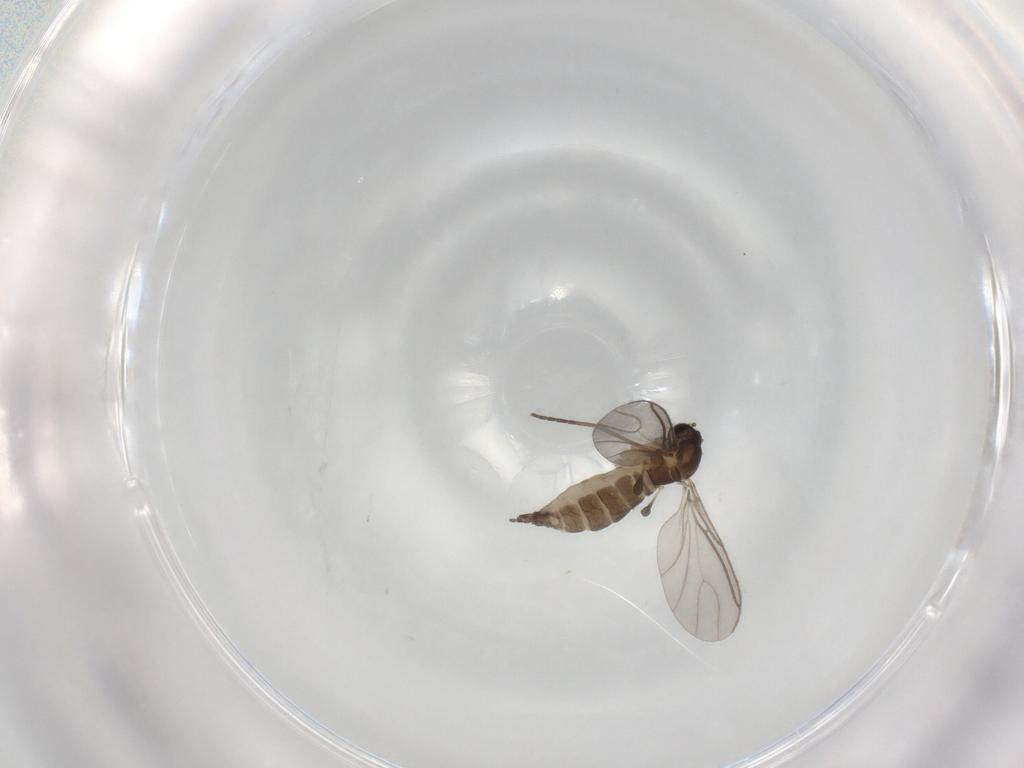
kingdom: Animalia
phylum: Arthropoda
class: Insecta
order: Diptera
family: Sciaridae
